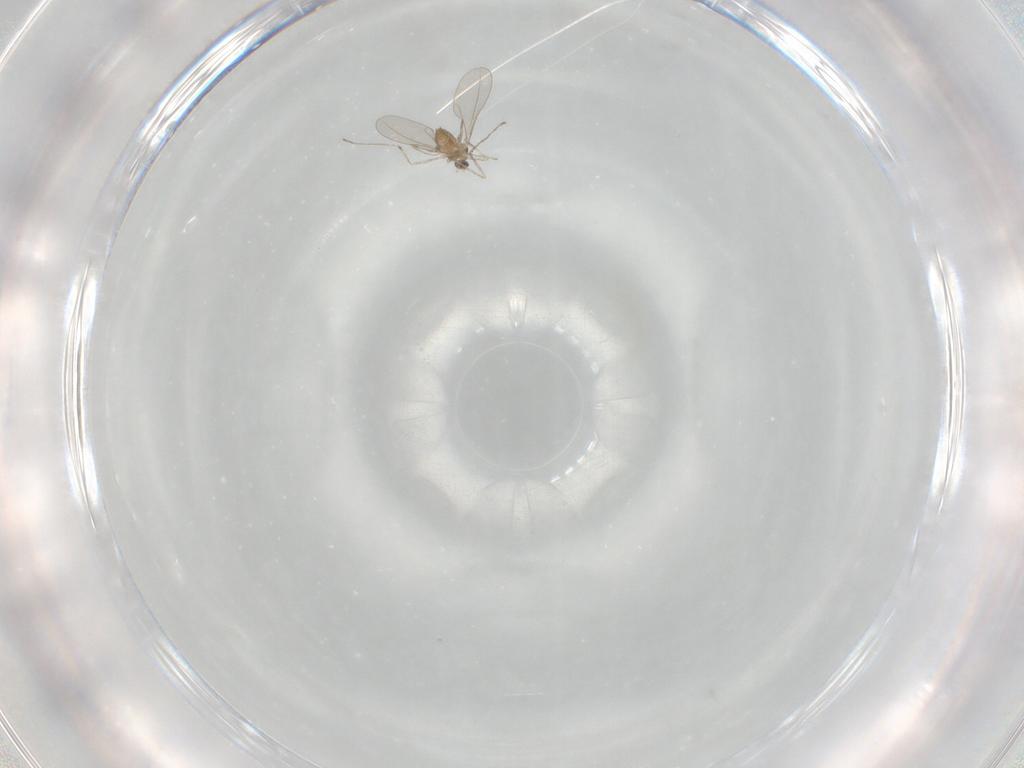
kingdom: Animalia
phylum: Arthropoda
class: Insecta
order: Diptera
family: Cecidomyiidae
